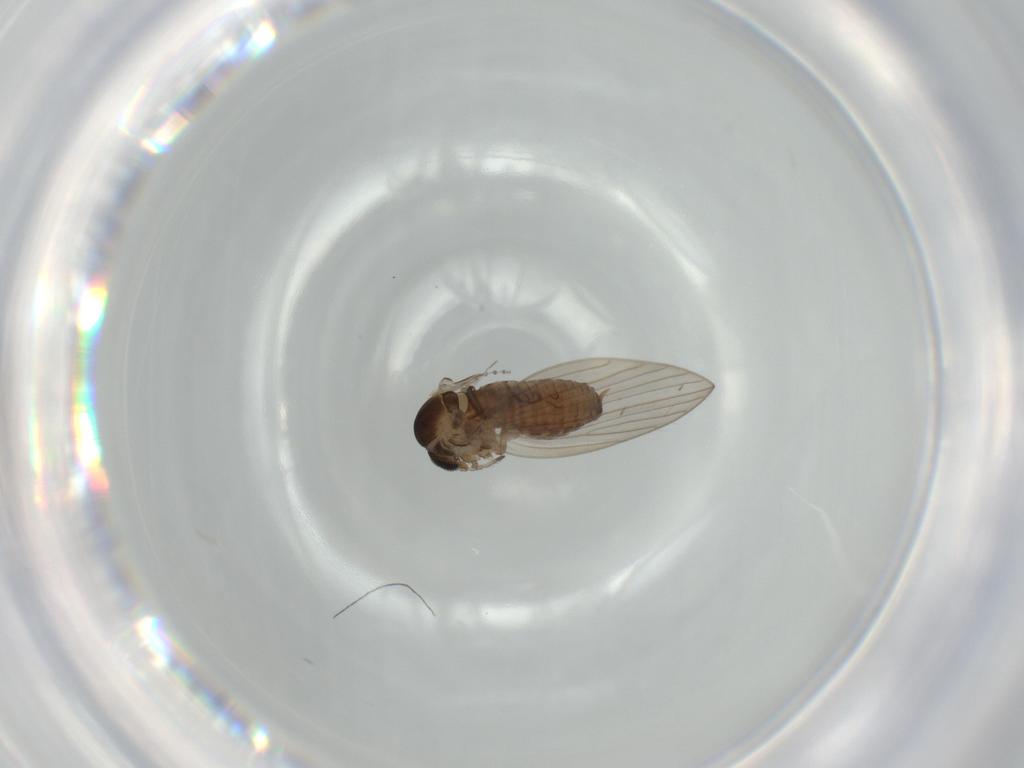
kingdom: Animalia
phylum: Arthropoda
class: Insecta
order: Diptera
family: Psychodidae
